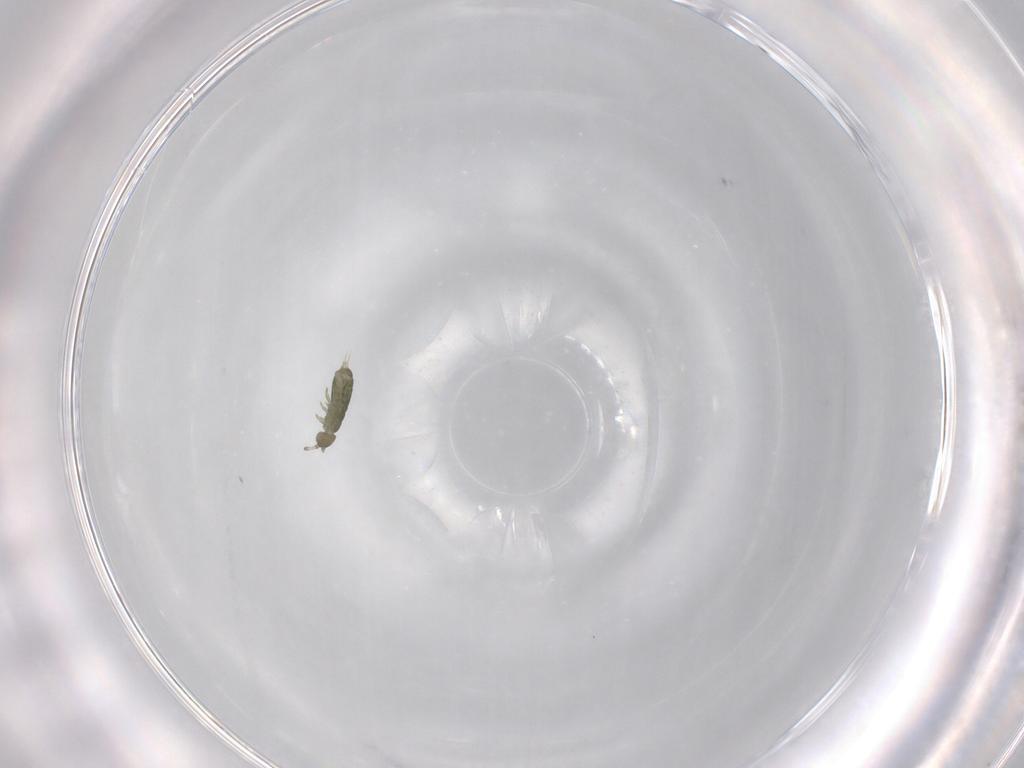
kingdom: Animalia
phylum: Arthropoda
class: Collembola
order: Entomobryomorpha
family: Isotomidae
